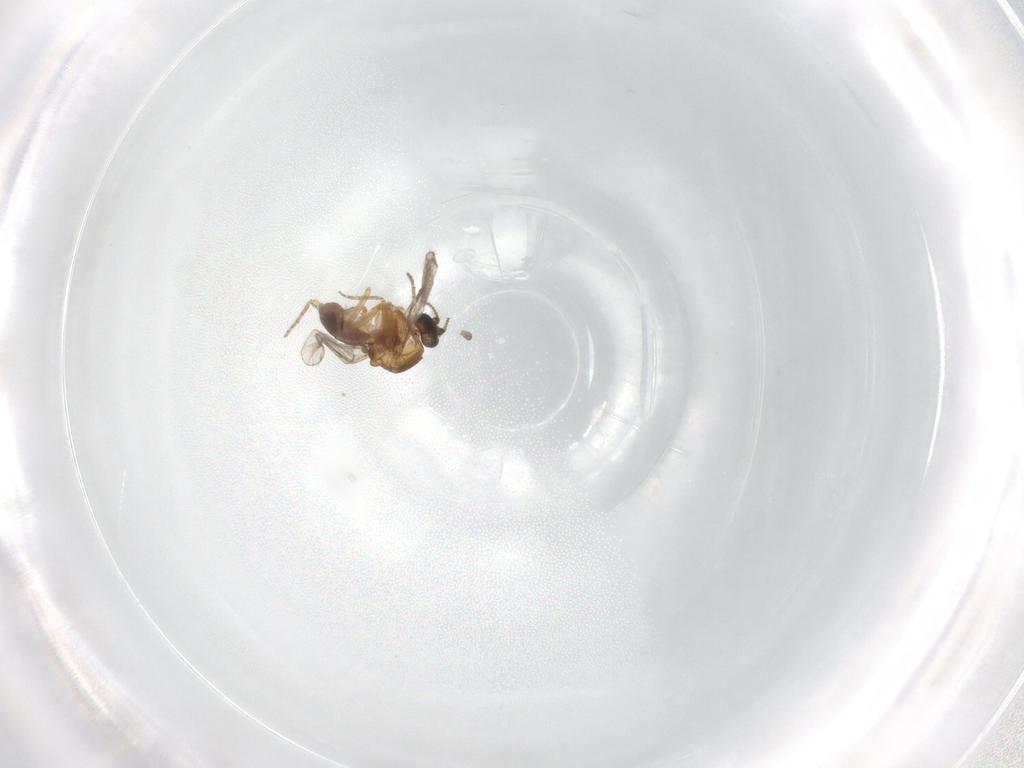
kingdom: Animalia
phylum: Arthropoda
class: Insecta
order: Diptera
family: Chironomidae
